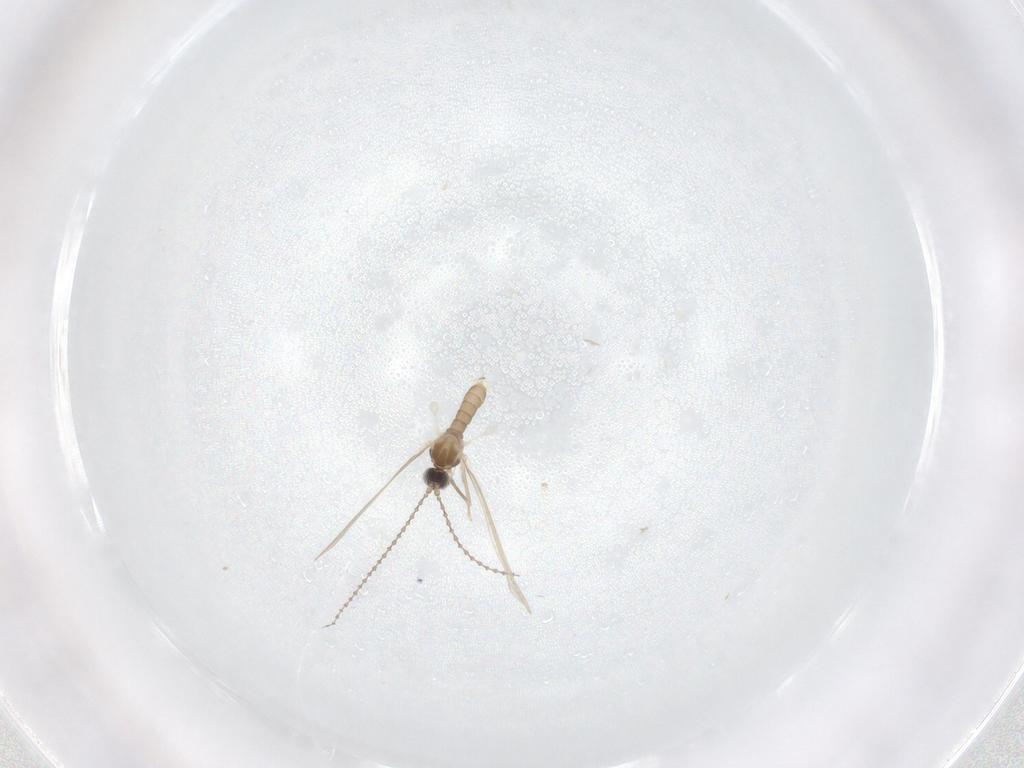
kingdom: Animalia
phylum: Arthropoda
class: Insecta
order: Diptera
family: Cecidomyiidae
